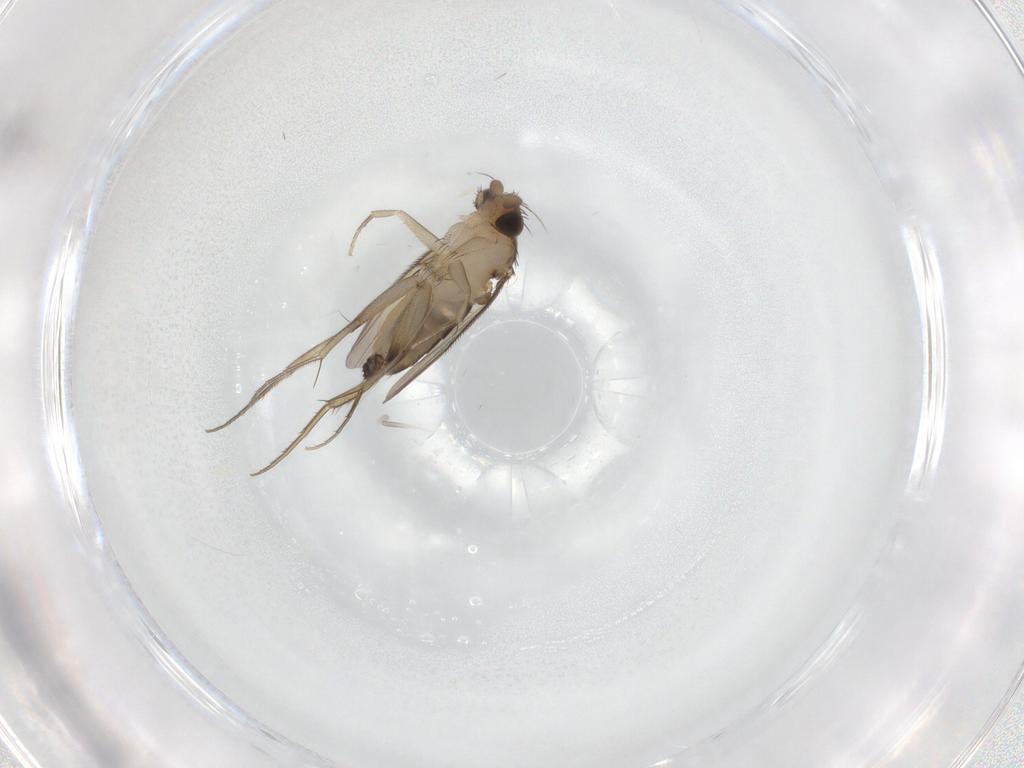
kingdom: Animalia
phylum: Arthropoda
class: Insecta
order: Diptera
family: Phoridae
